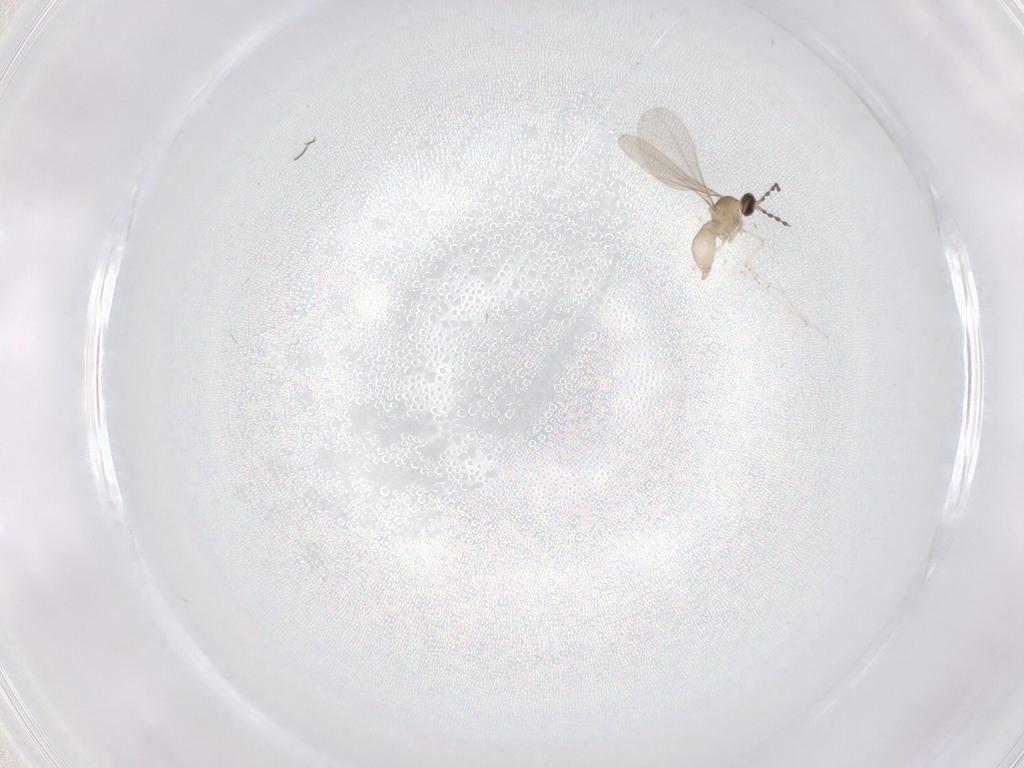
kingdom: Animalia
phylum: Arthropoda
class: Insecta
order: Diptera
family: Cecidomyiidae
